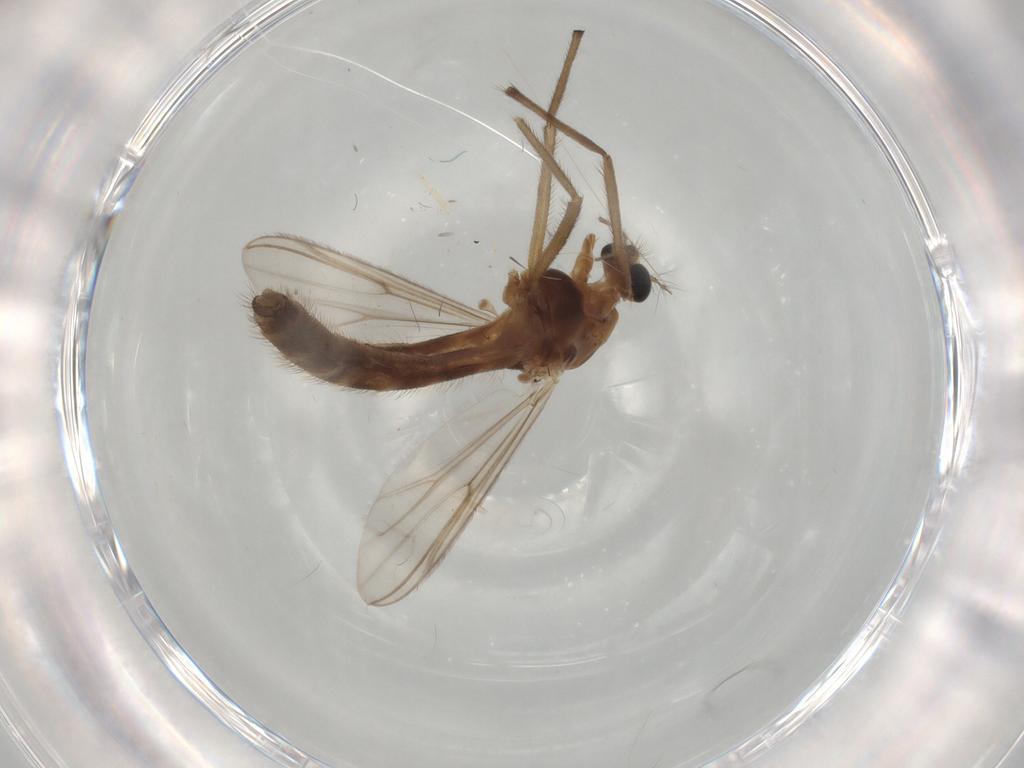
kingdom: Animalia
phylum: Arthropoda
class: Insecta
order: Diptera
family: Chironomidae
